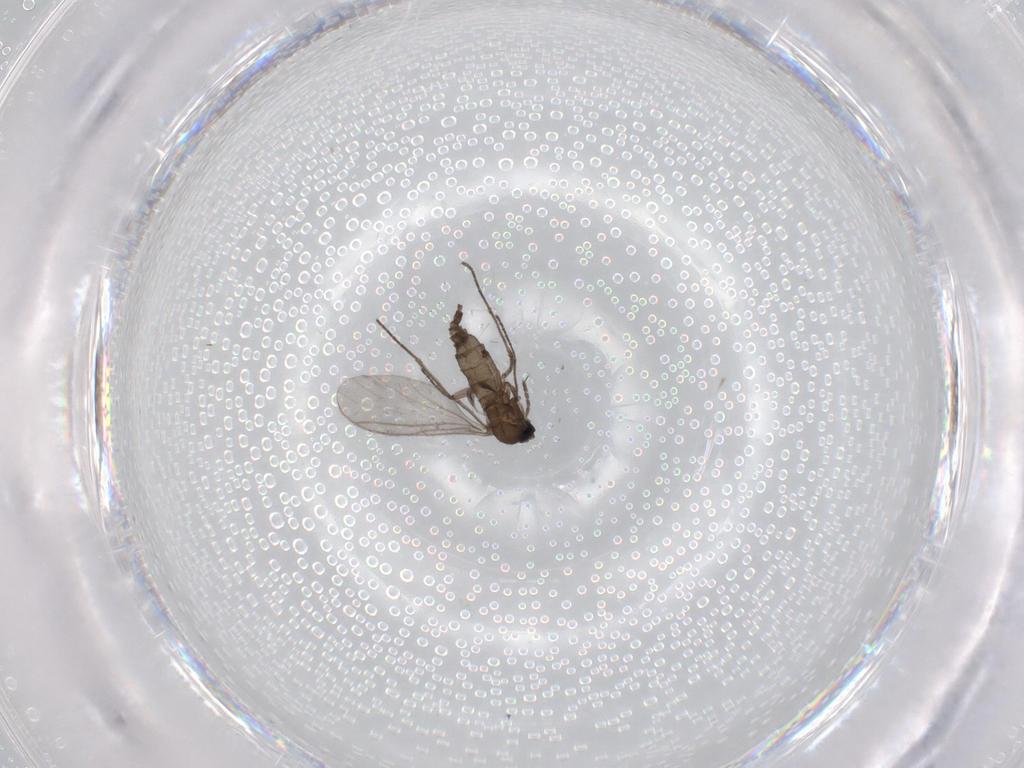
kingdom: Animalia
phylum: Arthropoda
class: Insecta
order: Diptera
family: Sciaridae
